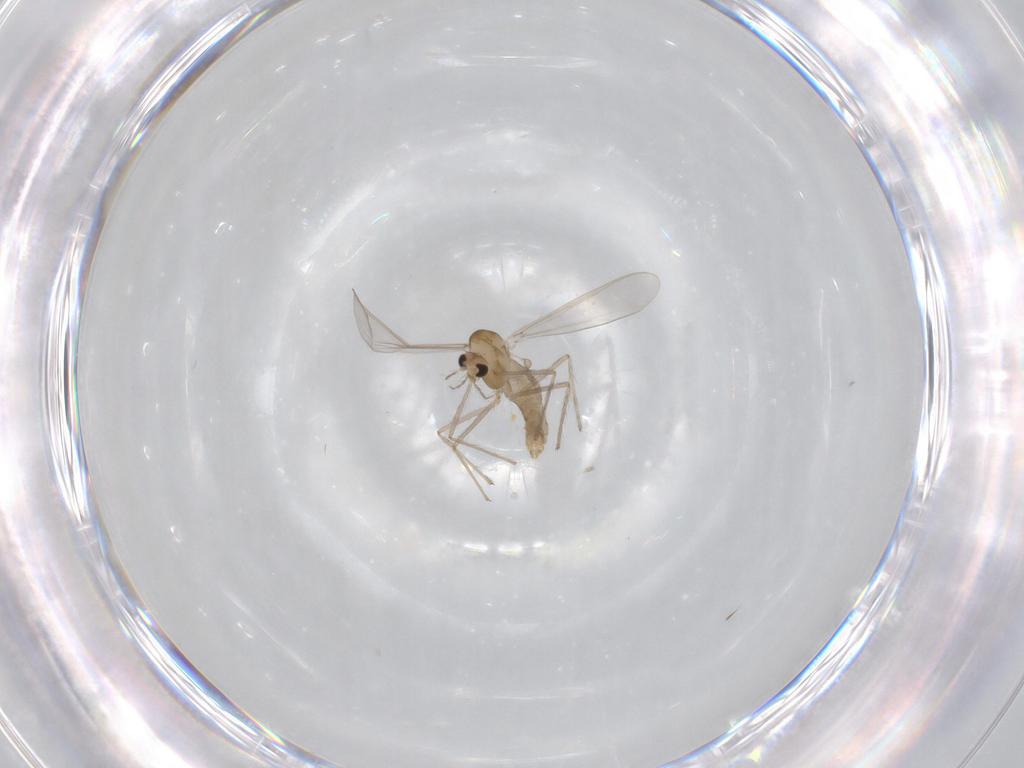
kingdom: Animalia
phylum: Arthropoda
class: Insecta
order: Diptera
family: Chironomidae
